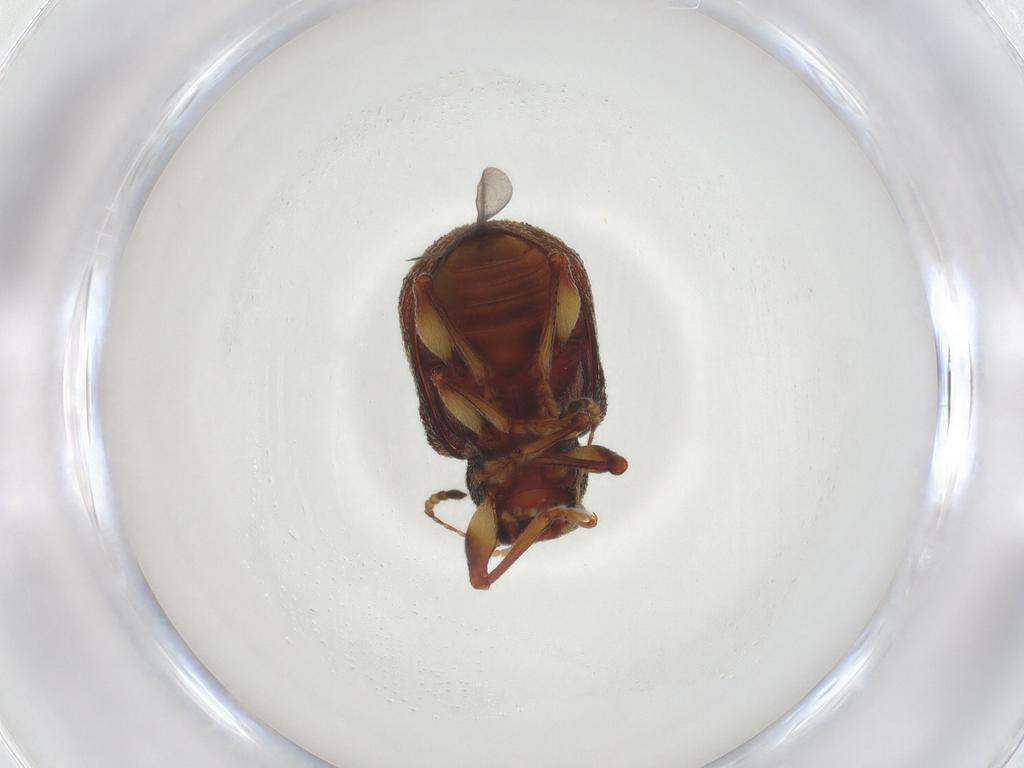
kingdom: Animalia
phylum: Arthropoda
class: Insecta
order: Coleoptera
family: Chrysomelidae
